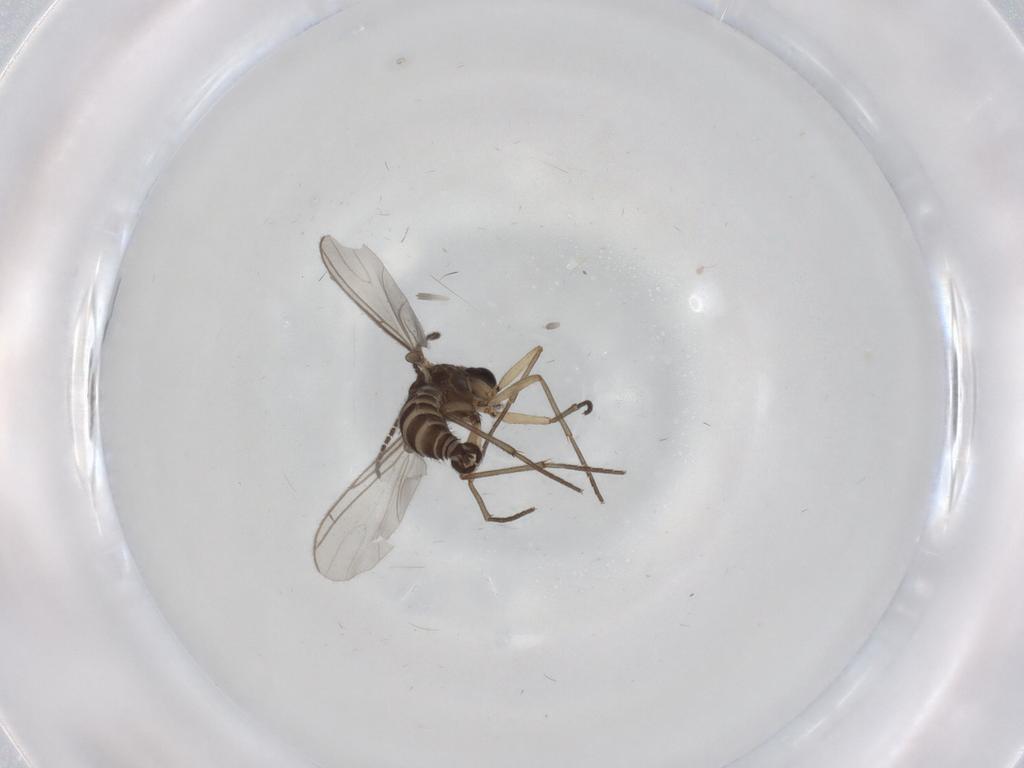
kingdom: Animalia
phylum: Arthropoda
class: Insecta
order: Diptera
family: Sciaridae
